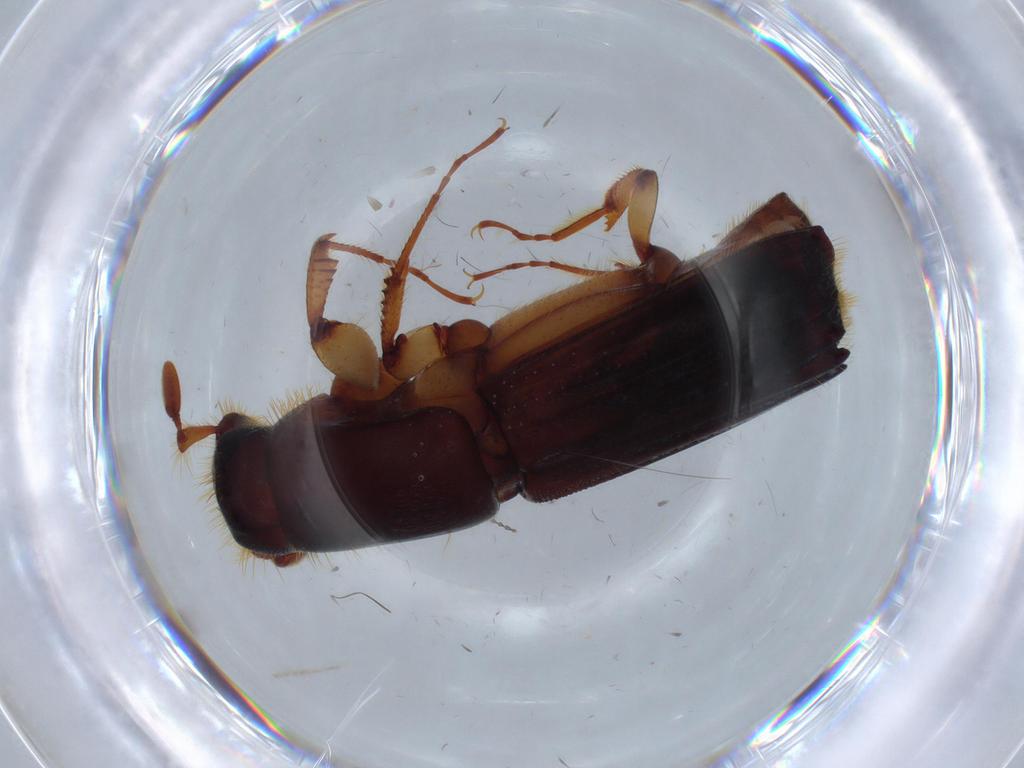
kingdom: Animalia
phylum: Arthropoda
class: Insecta
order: Coleoptera
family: Curculionidae
